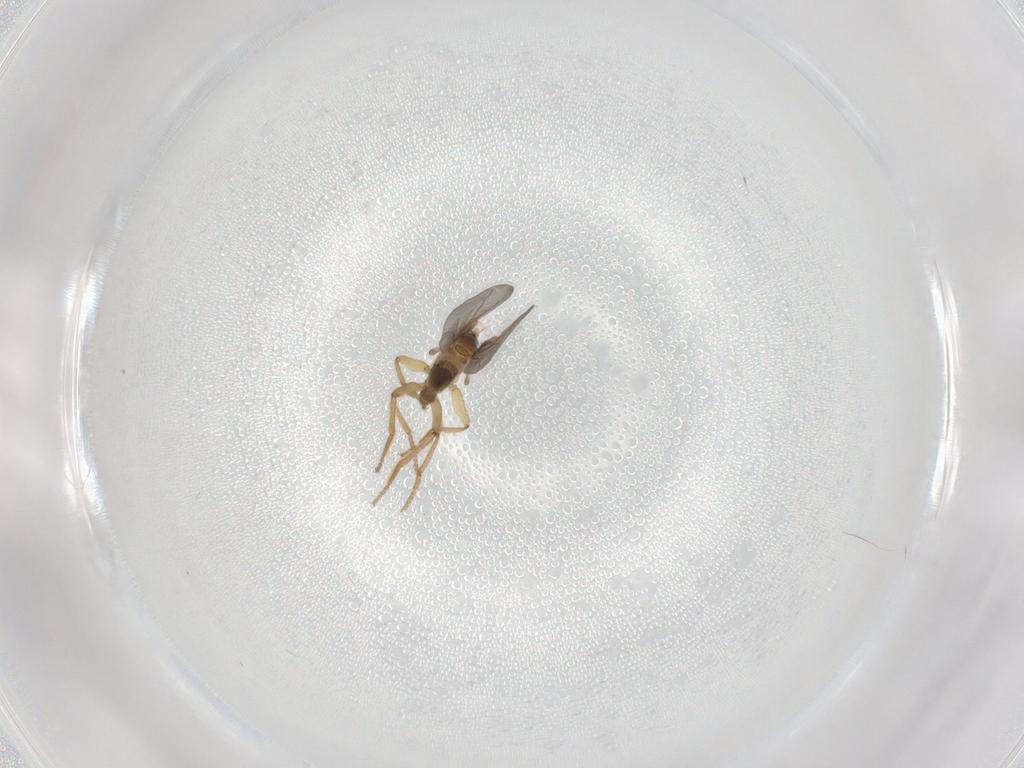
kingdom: Animalia
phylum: Arthropoda
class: Insecta
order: Diptera
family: Phoridae
